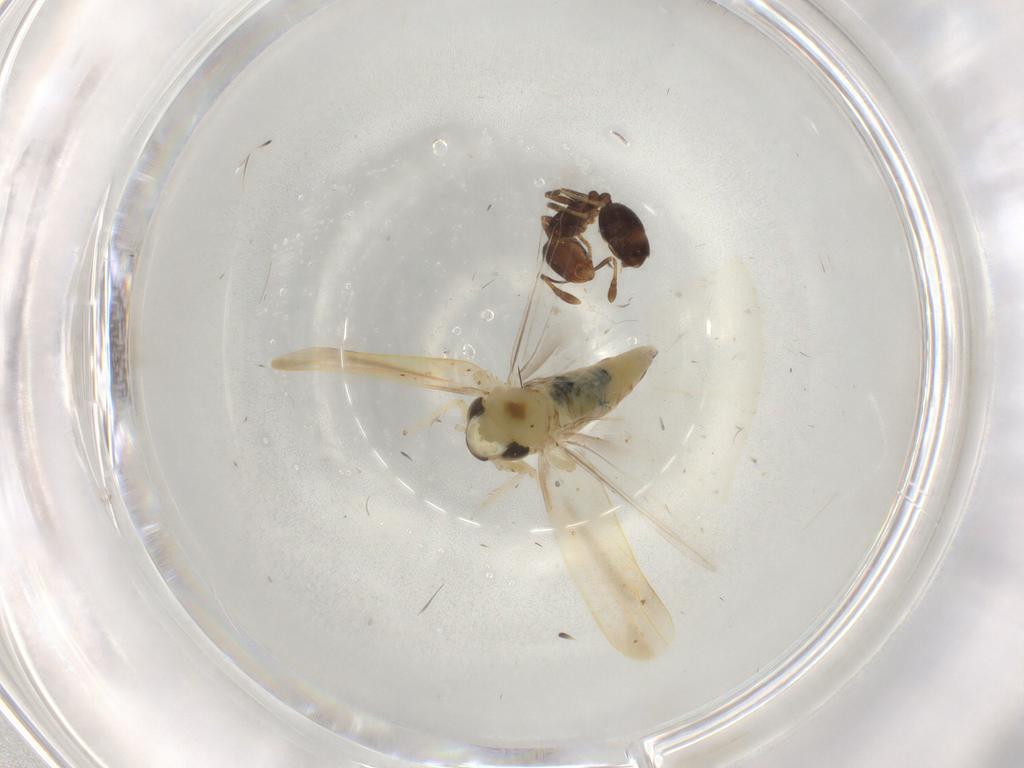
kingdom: Animalia
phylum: Arthropoda
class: Insecta
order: Hemiptera
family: Cicadellidae
